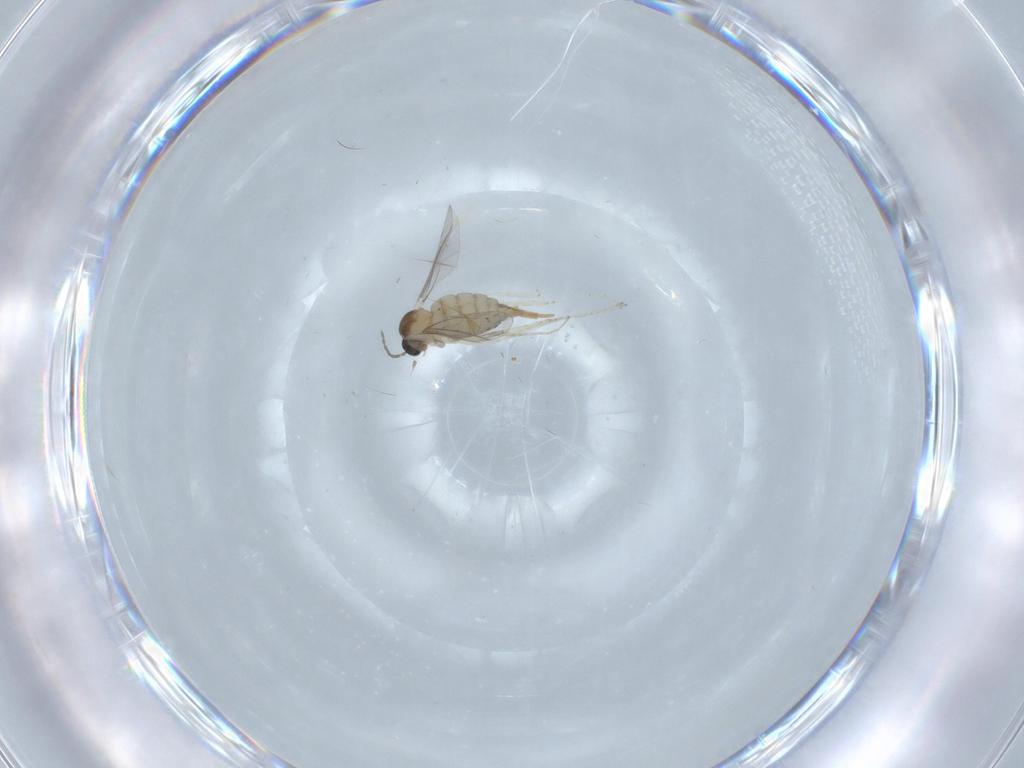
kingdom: Animalia
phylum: Arthropoda
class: Insecta
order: Diptera
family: Cecidomyiidae
